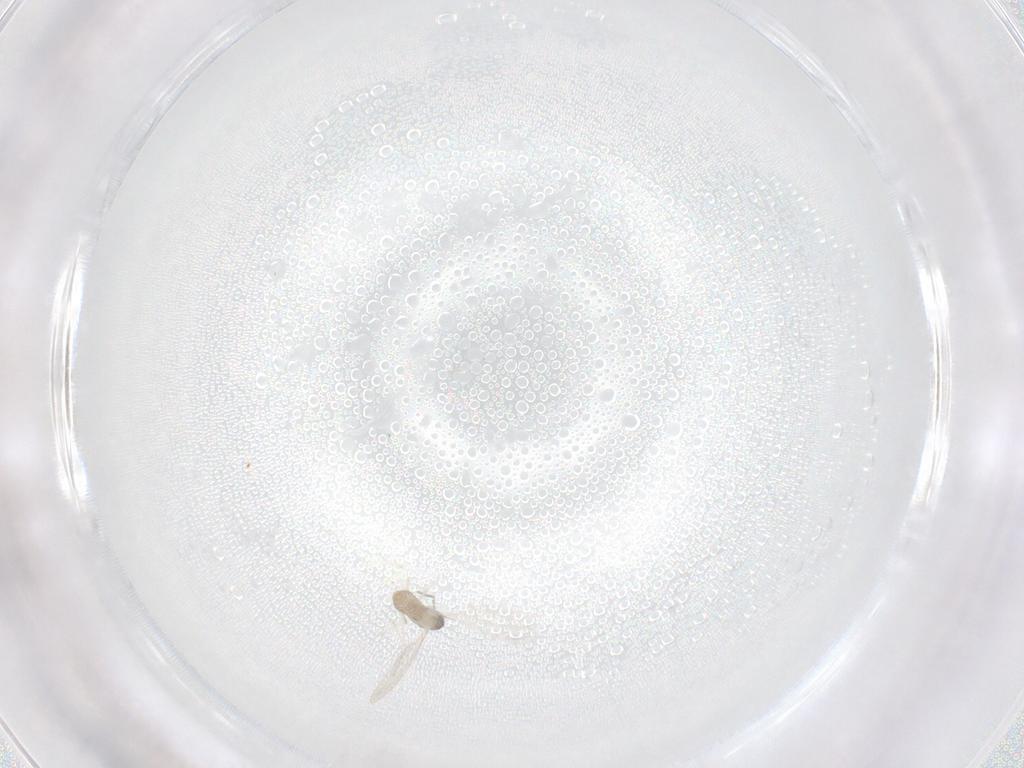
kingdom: Animalia
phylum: Arthropoda
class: Insecta
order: Diptera
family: Cecidomyiidae
